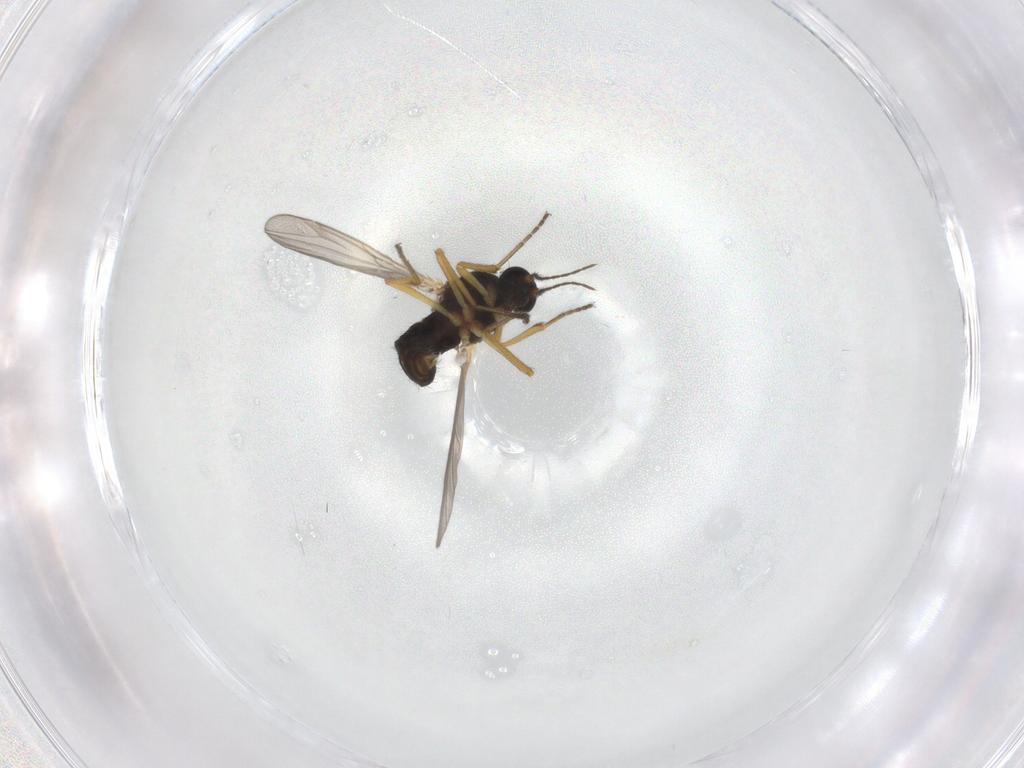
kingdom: Animalia
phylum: Arthropoda
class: Insecta
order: Diptera
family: Ceratopogonidae
